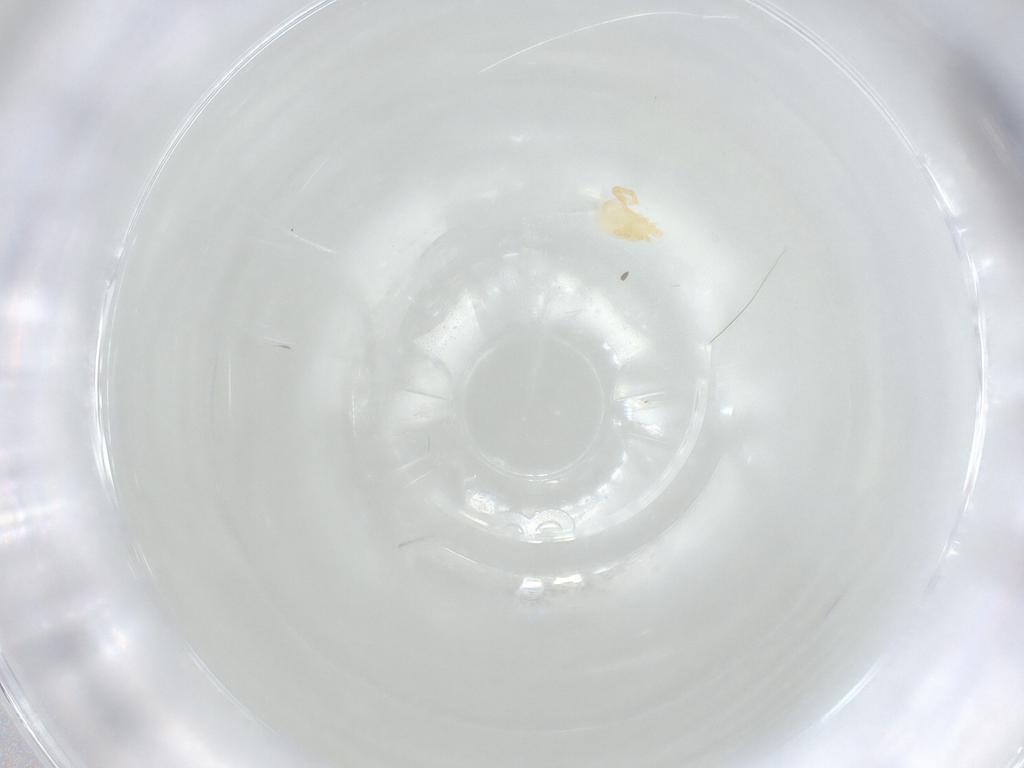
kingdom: Animalia
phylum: Arthropoda
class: Arachnida
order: Trombidiformes
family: Eupodidae
